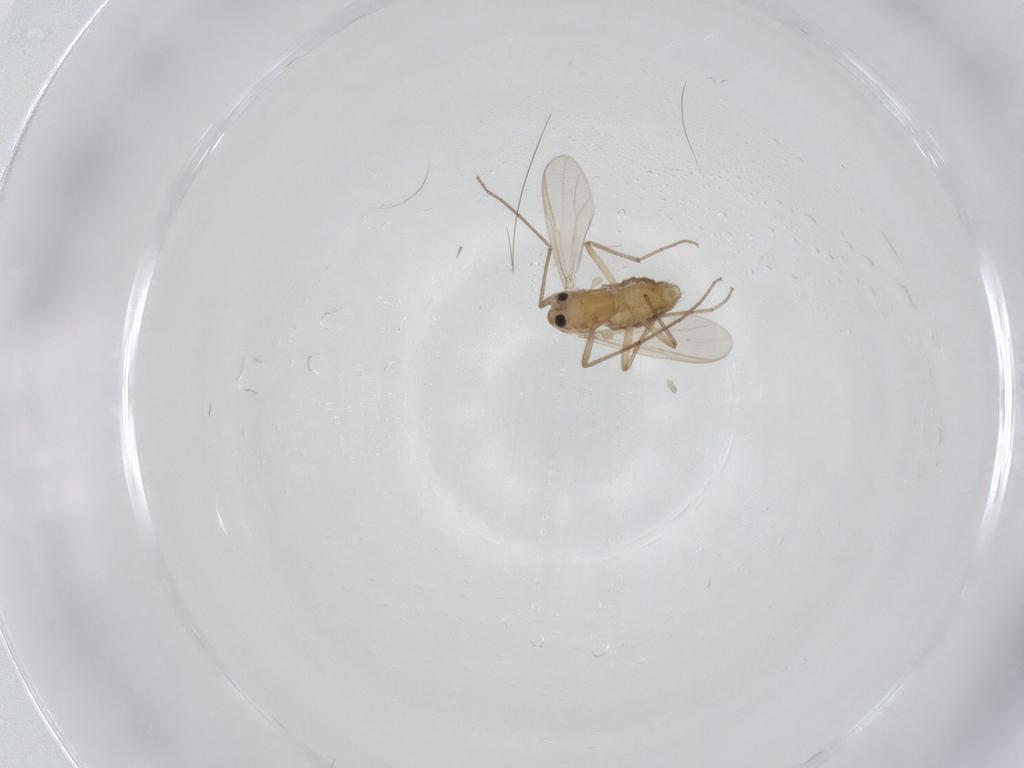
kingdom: Animalia
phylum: Arthropoda
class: Insecta
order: Diptera
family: Chironomidae
